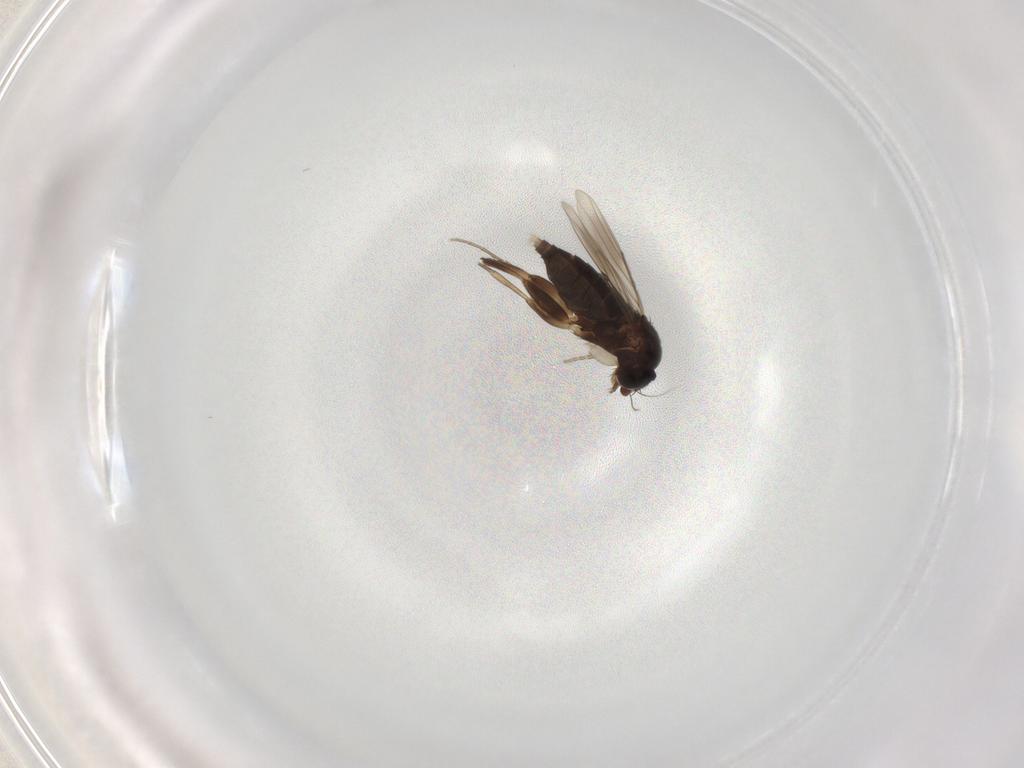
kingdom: Animalia
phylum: Arthropoda
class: Insecta
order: Diptera
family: Phoridae
